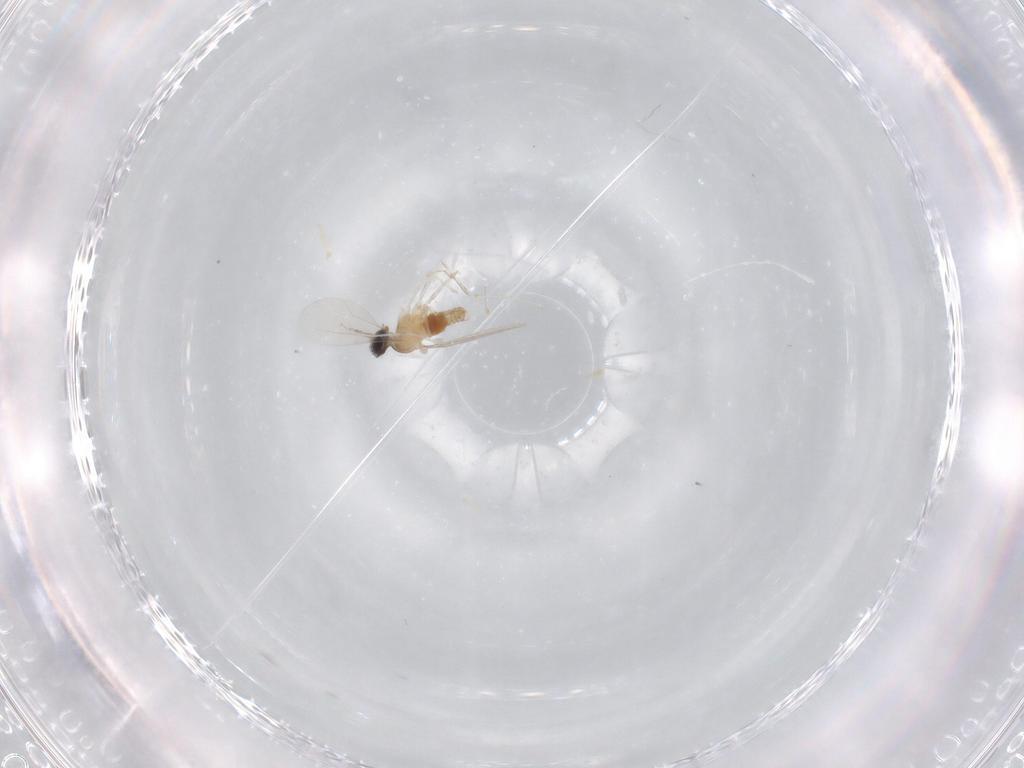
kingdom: Animalia
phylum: Arthropoda
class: Insecta
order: Diptera
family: Cecidomyiidae
